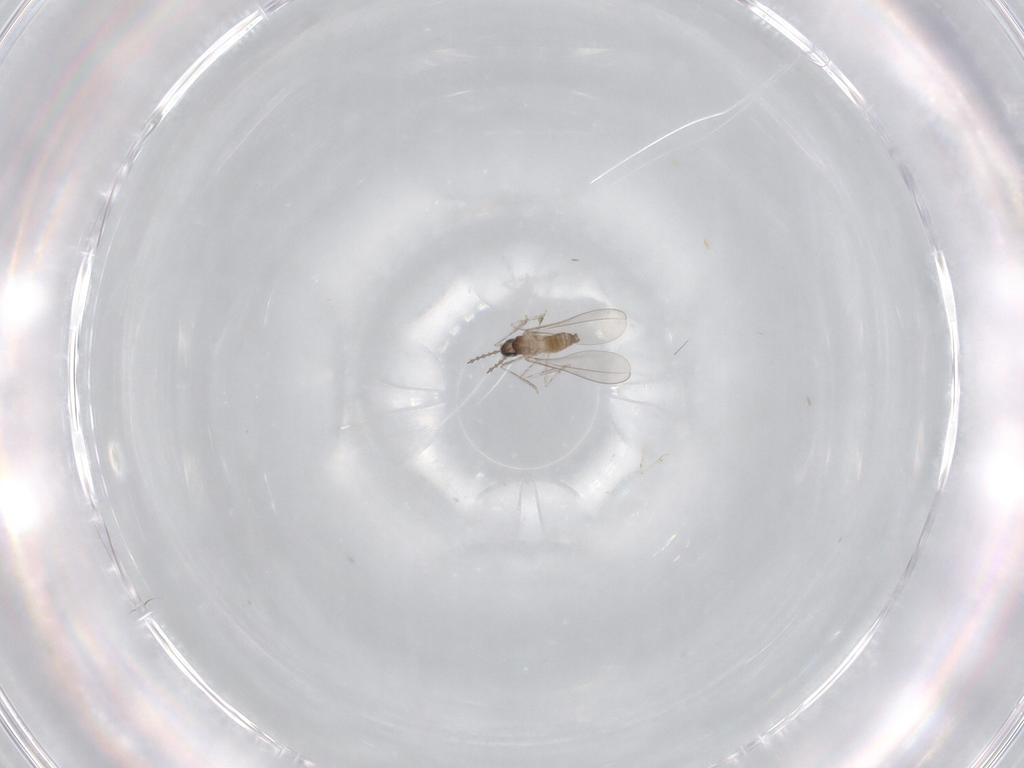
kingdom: Animalia
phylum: Arthropoda
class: Insecta
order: Diptera
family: Cecidomyiidae
